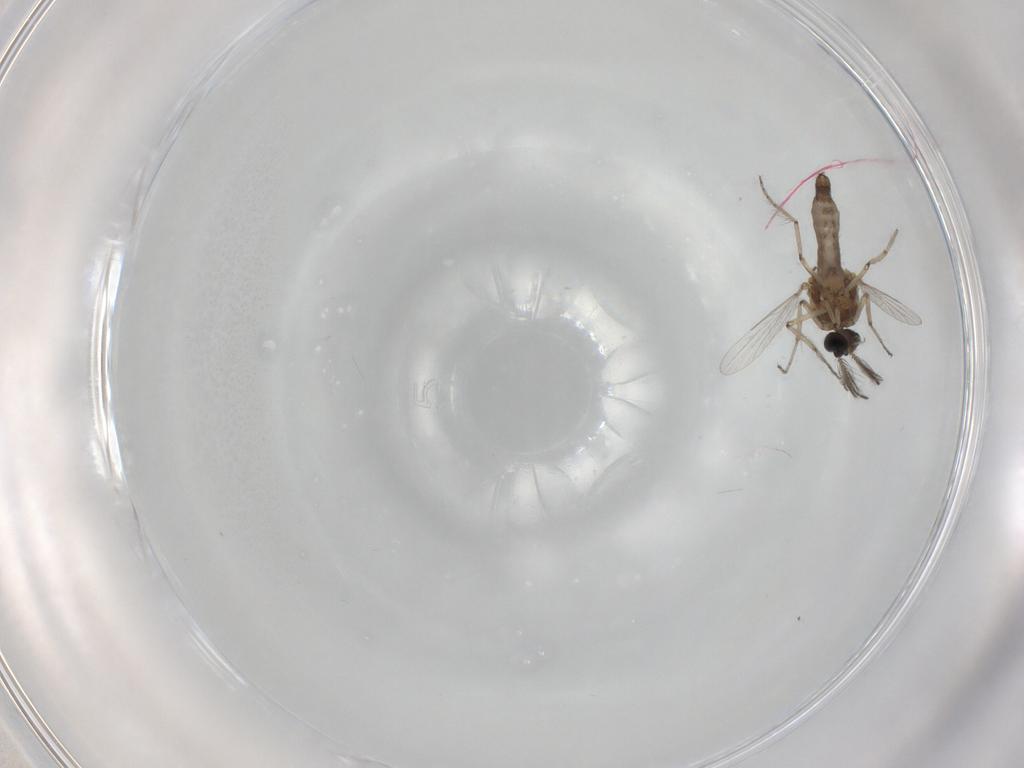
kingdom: Animalia
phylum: Arthropoda
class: Insecta
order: Diptera
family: Ceratopogonidae
